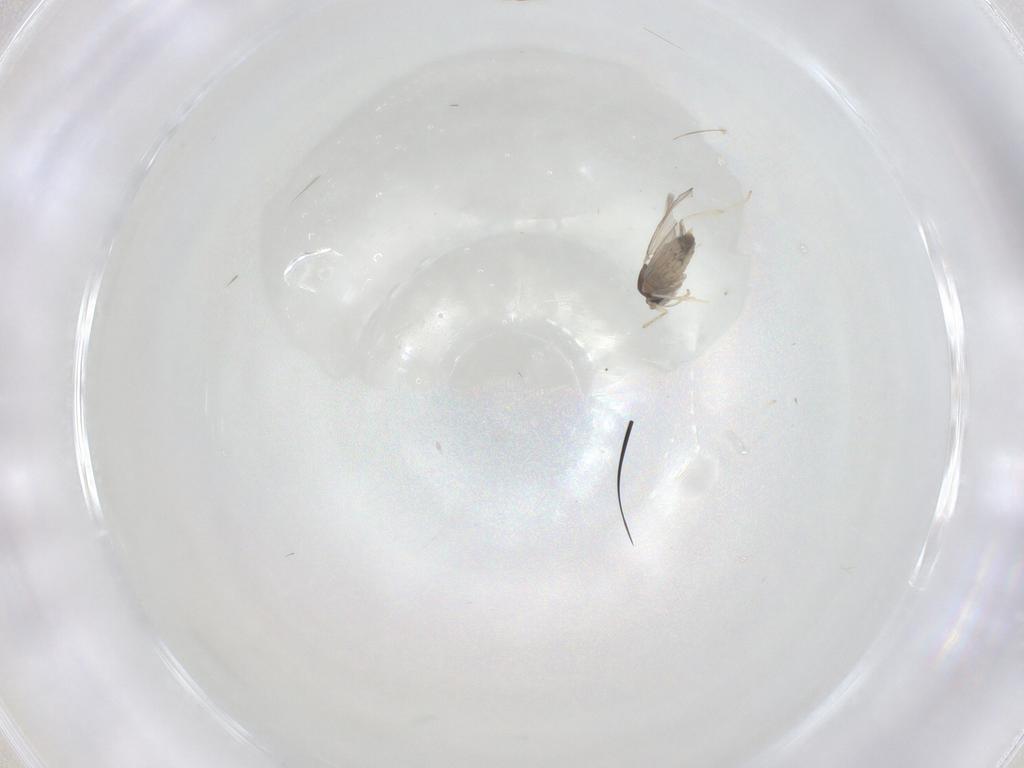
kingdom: Animalia
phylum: Arthropoda
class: Insecta
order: Diptera
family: Cecidomyiidae
